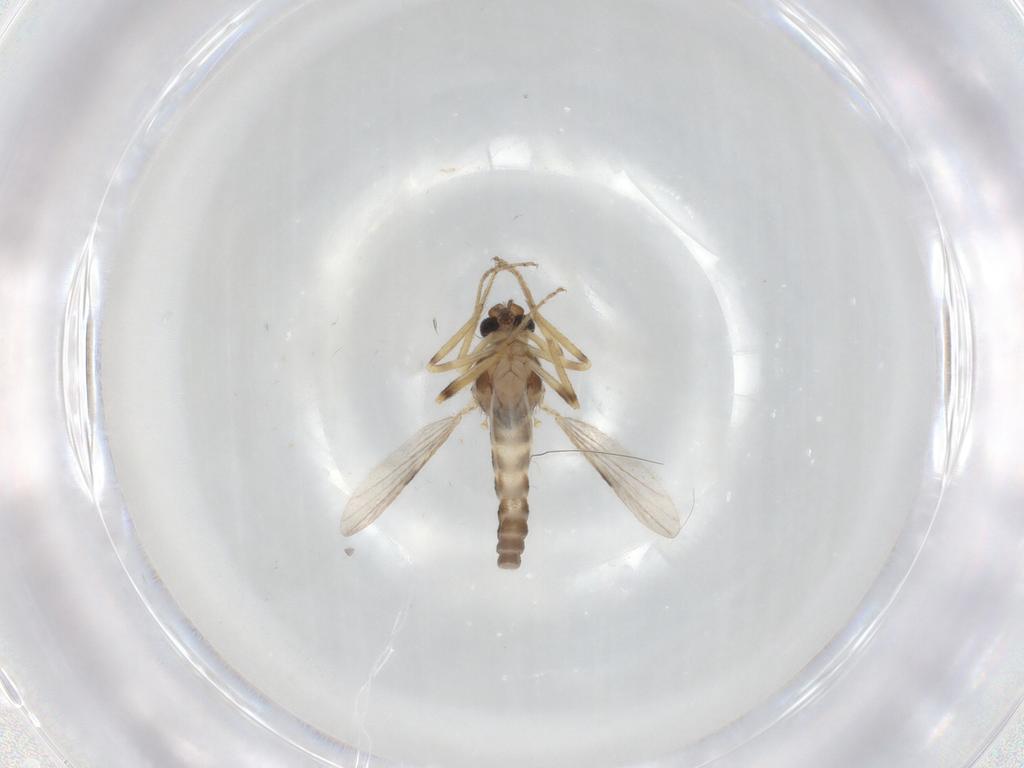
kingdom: Animalia
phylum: Arthropoda
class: Insecta
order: Diptera
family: Ceratopogonidae
